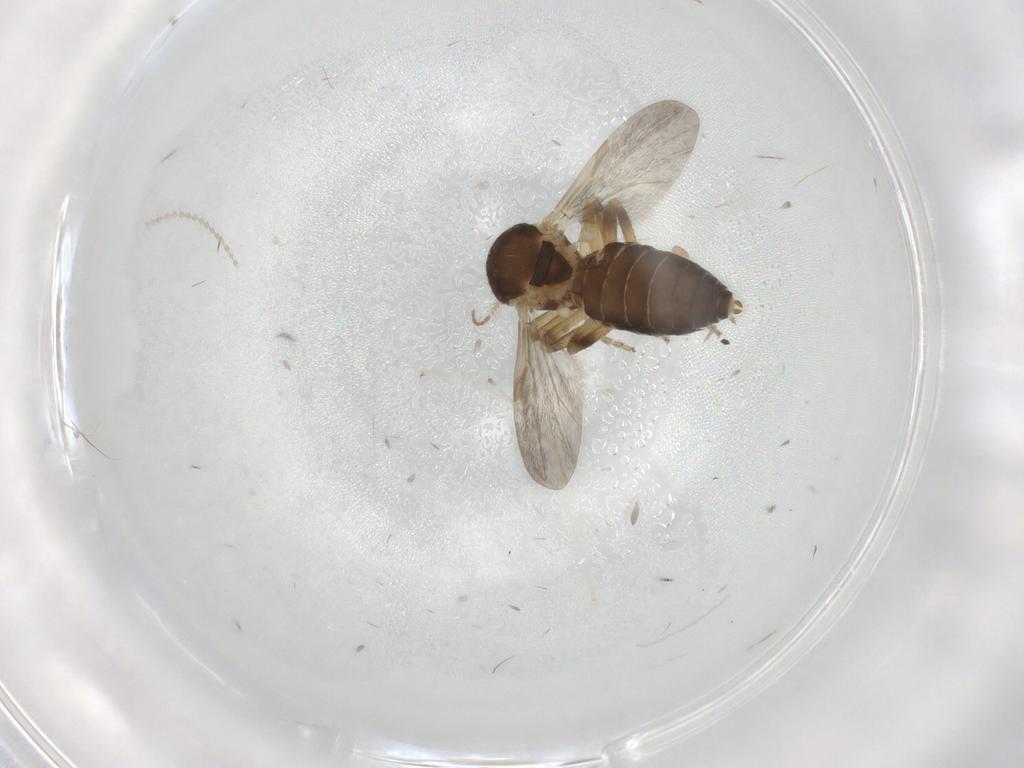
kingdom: Animalia
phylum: Arthropoda
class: Insecta
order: Diptera
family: Ceratopogonidae
